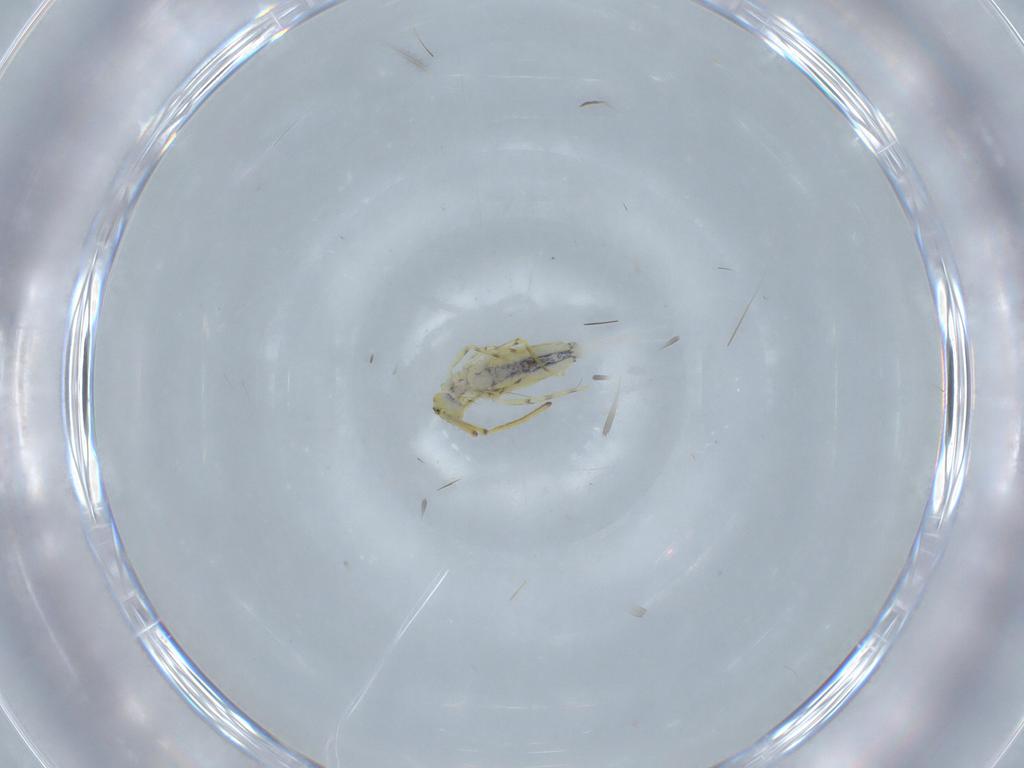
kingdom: Animalia
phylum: Arthropoda
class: Collembola
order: Entomobryomorpha
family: Paronellidae
